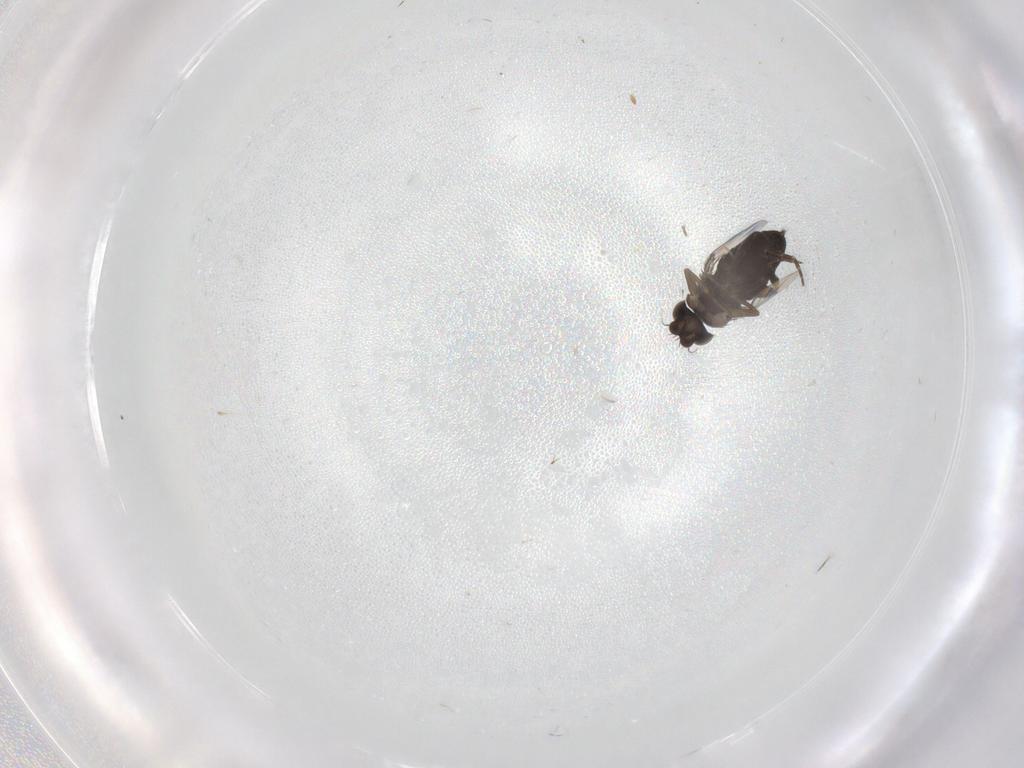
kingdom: Animalia
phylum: Arthropoda
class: Insecta
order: Diptera
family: Phoridae
